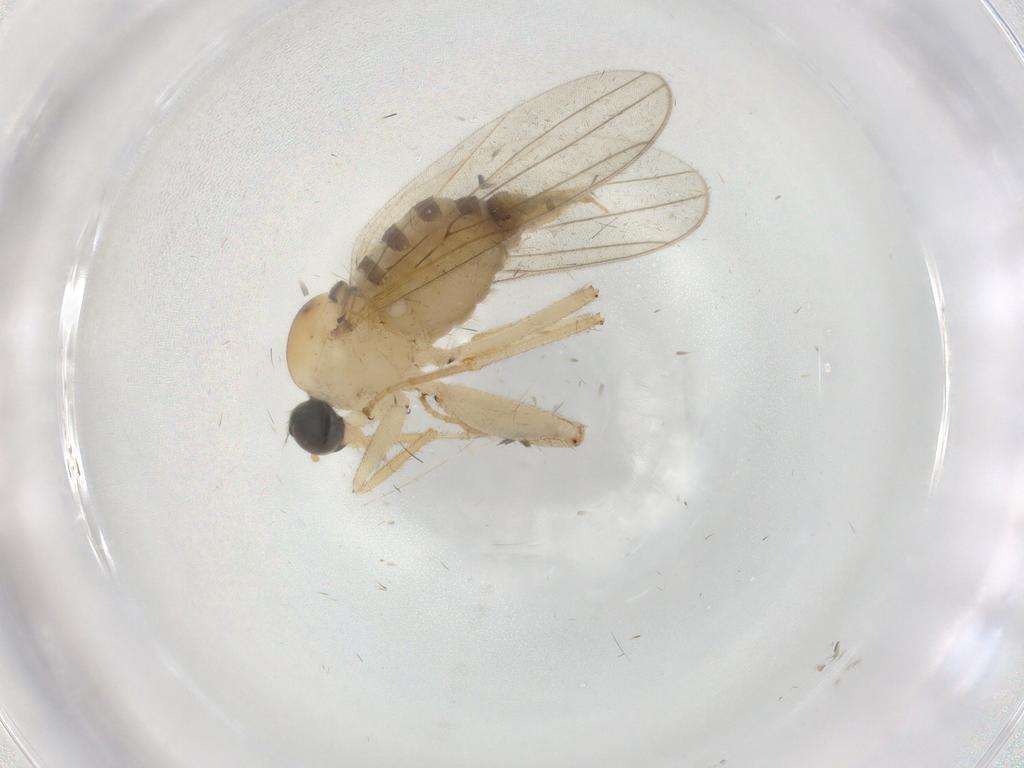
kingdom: Animalia
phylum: Arthropoda
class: Insecta
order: Diptera
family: Hybotidae
